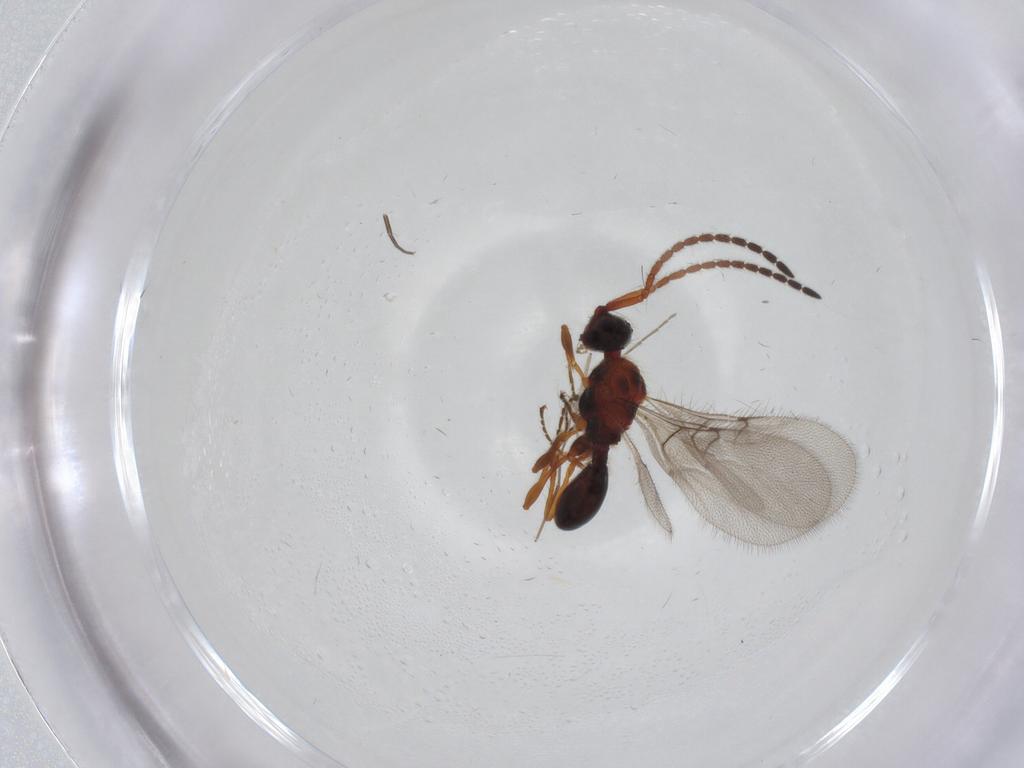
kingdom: Animalia
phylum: Arthropoda
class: Insecta
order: Hymenoptera
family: Diapriidae
